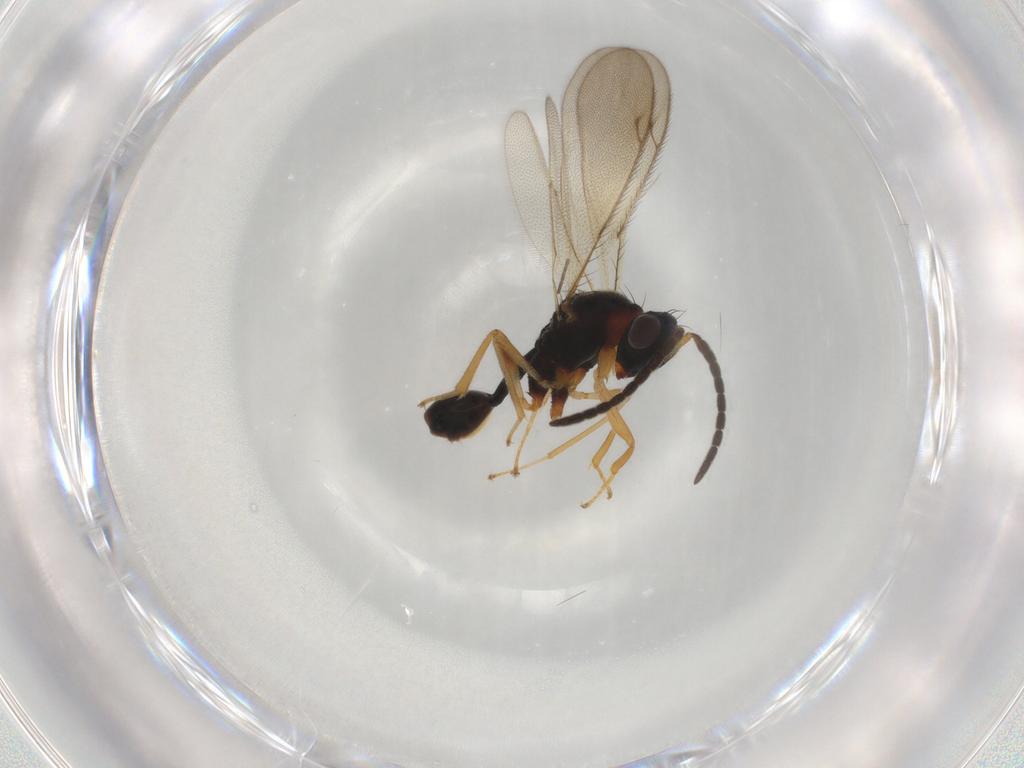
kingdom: Animalia
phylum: Arthropoda
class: Insecta
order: Hymenoptera
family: Pteromalidae
